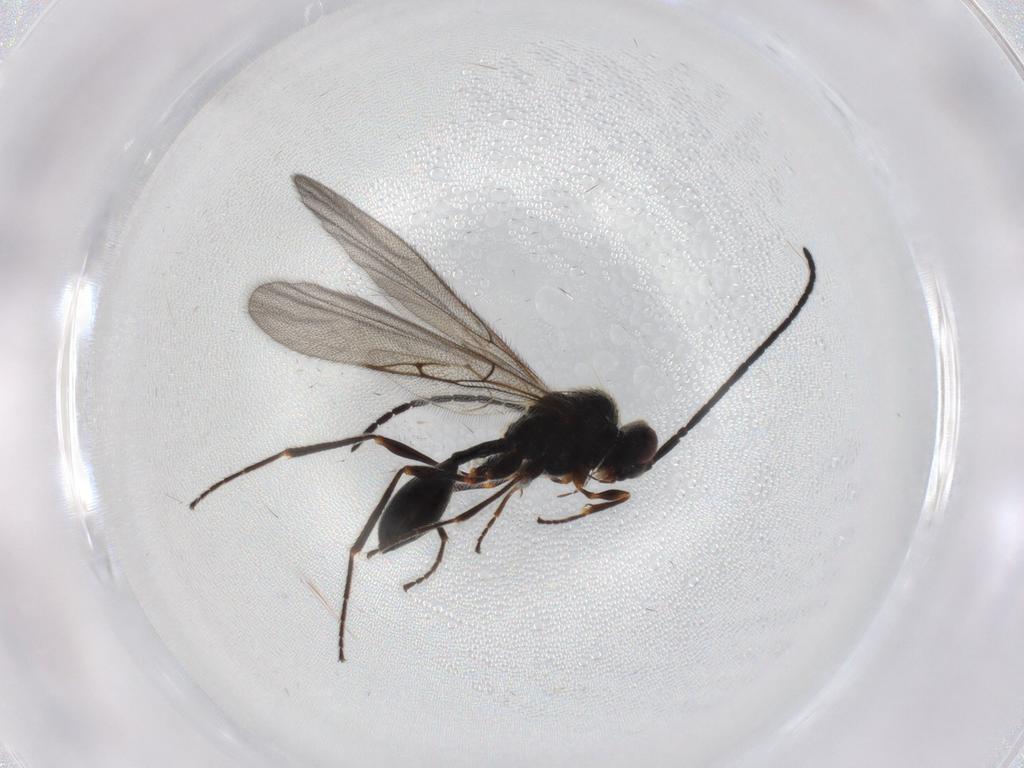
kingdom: Animalia
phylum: Arthropoda
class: Insecta
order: Hymenoptera
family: Diapriidae
